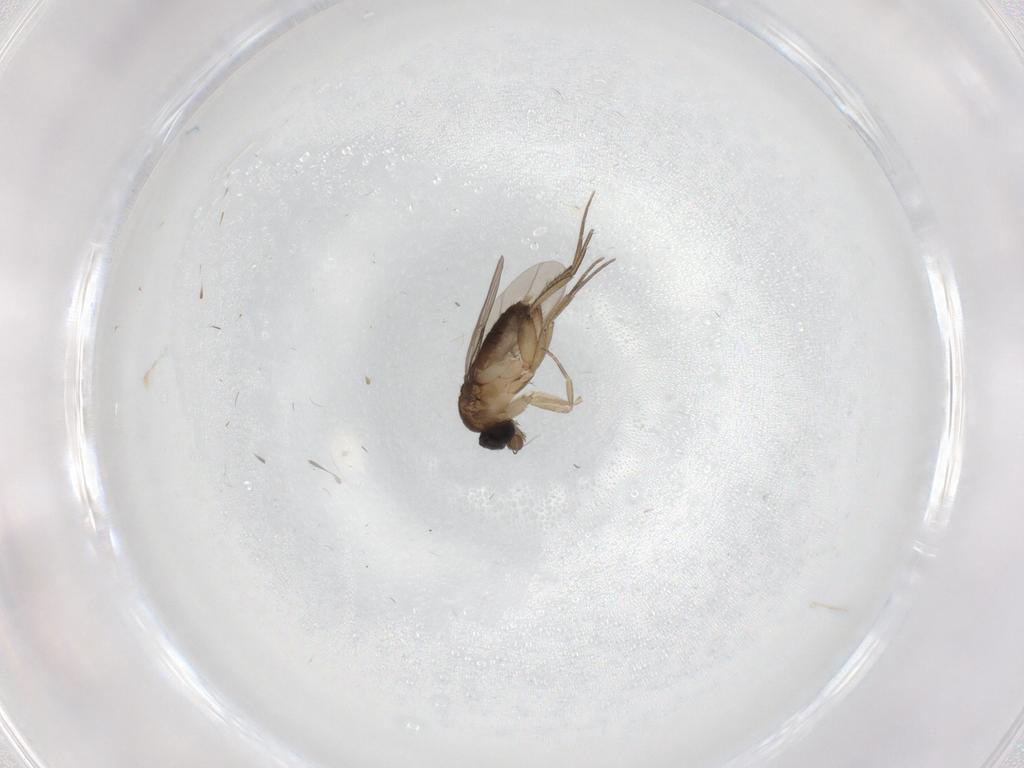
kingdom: Animalia
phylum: Arthropoda
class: Insecta
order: Diptera
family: Phoridae
